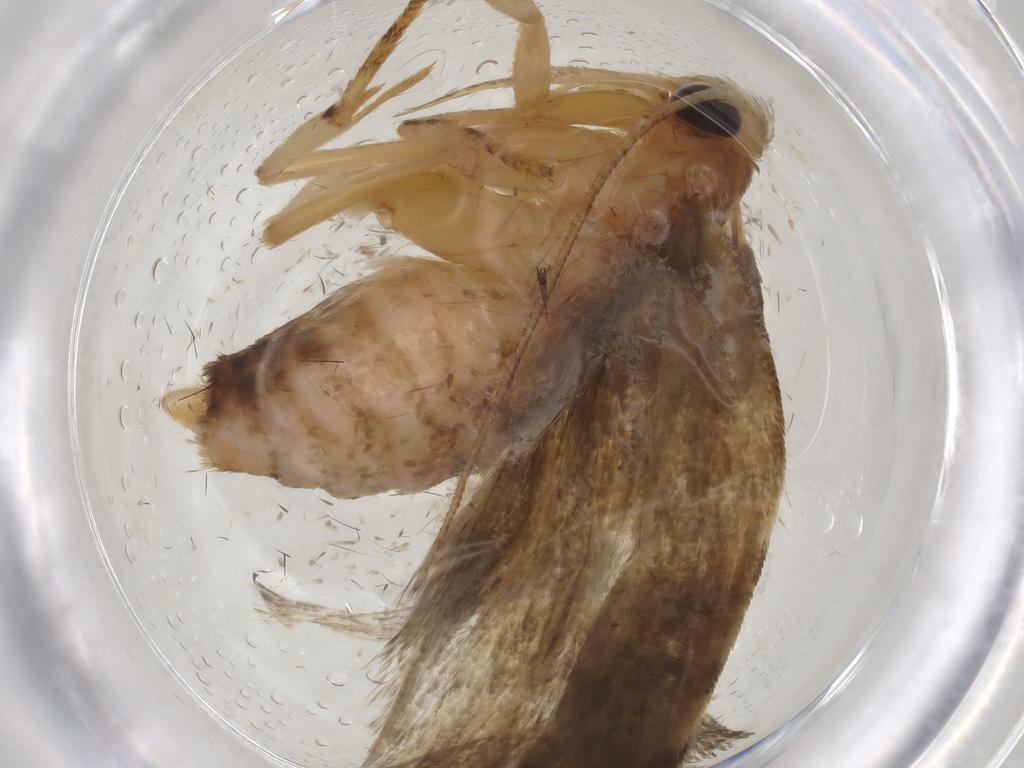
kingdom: Animalia
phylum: Arthropoda
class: Insecta
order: Lepidoptera
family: Depressariidae
